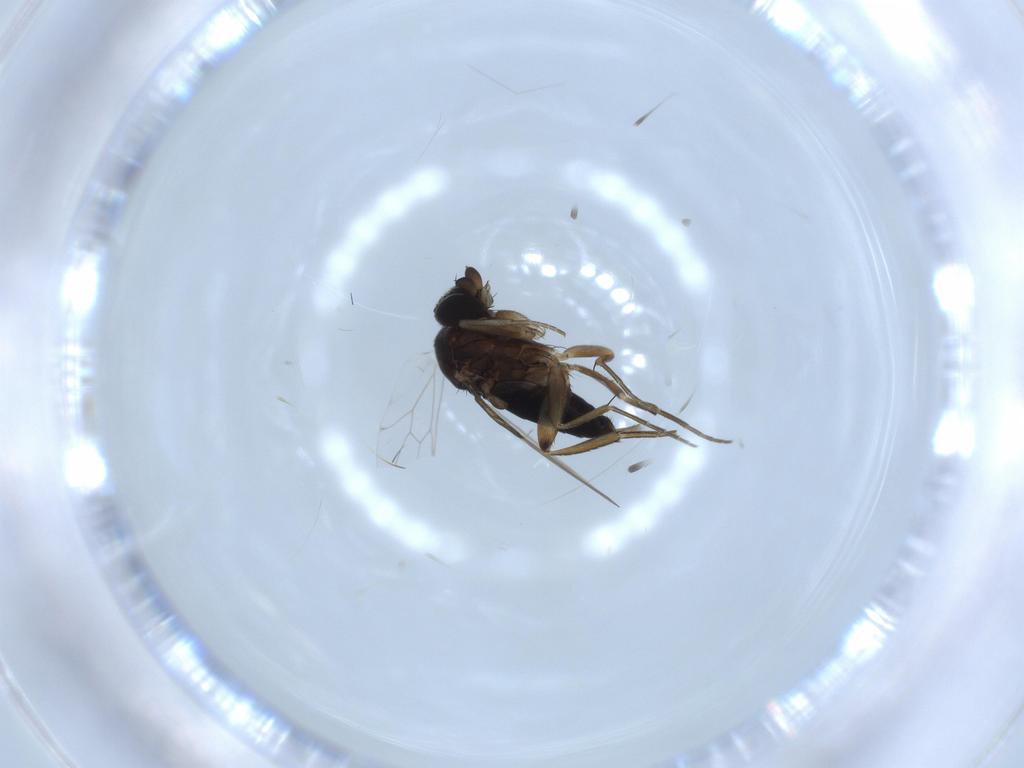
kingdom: Animalia
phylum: Arthropoda
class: Insecta
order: Diptera
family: Phoridae
